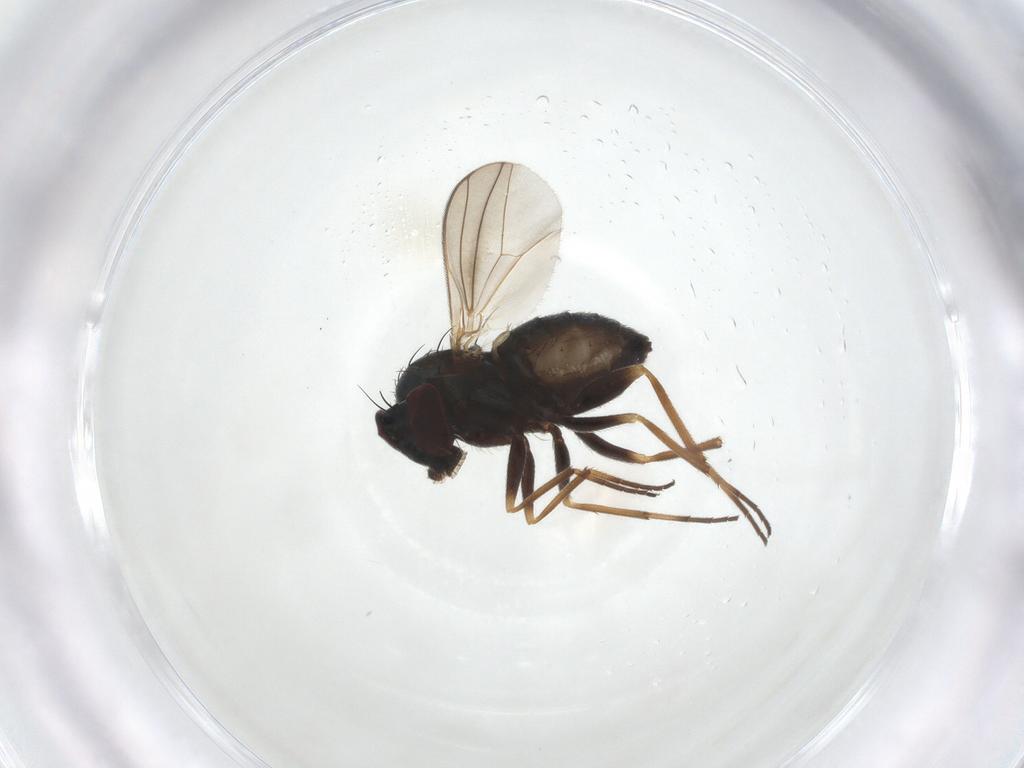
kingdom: Animalia
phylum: Arthropoda
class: Insecta
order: Diptera
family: Dolichopodidae
